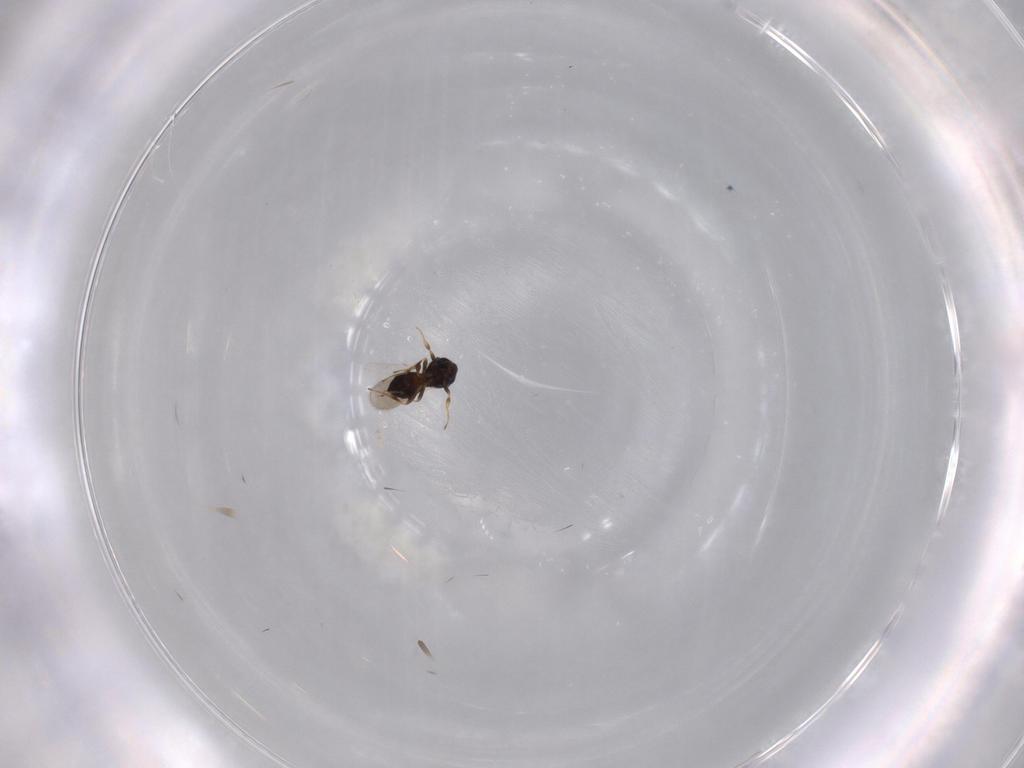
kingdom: Animalia
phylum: Arthropoda
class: Insecta
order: Hymenoptera
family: Scelionidae
